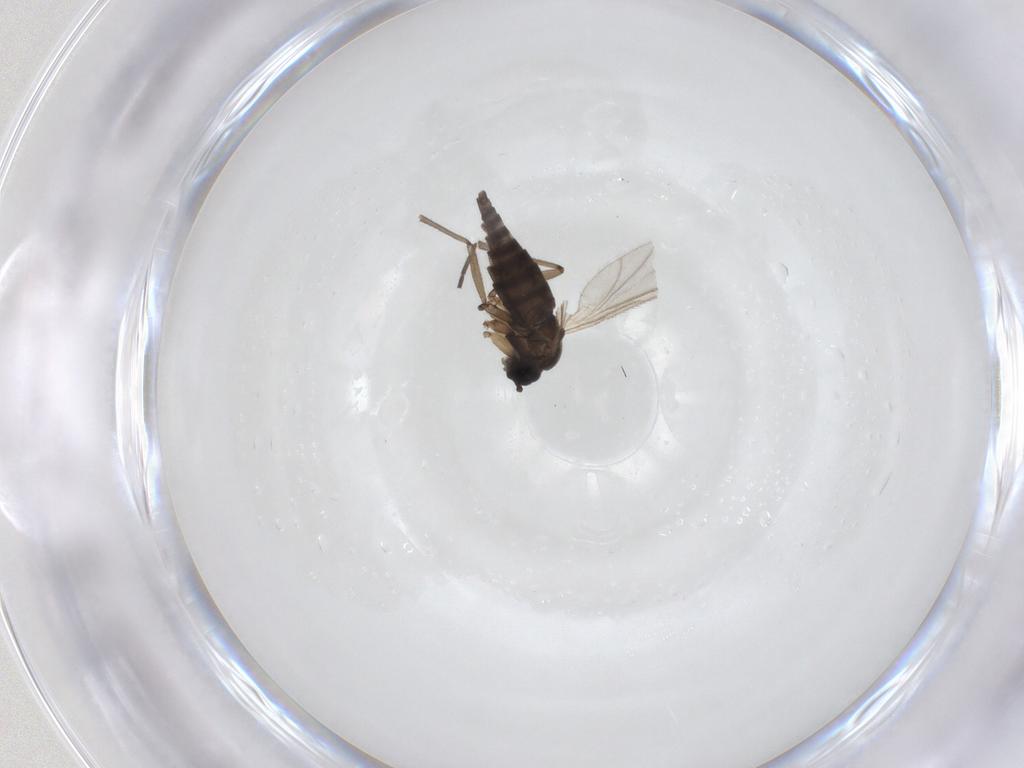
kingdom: Animalia
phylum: Arthropoda
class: Insecta
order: Diptera
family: Sciaridae
